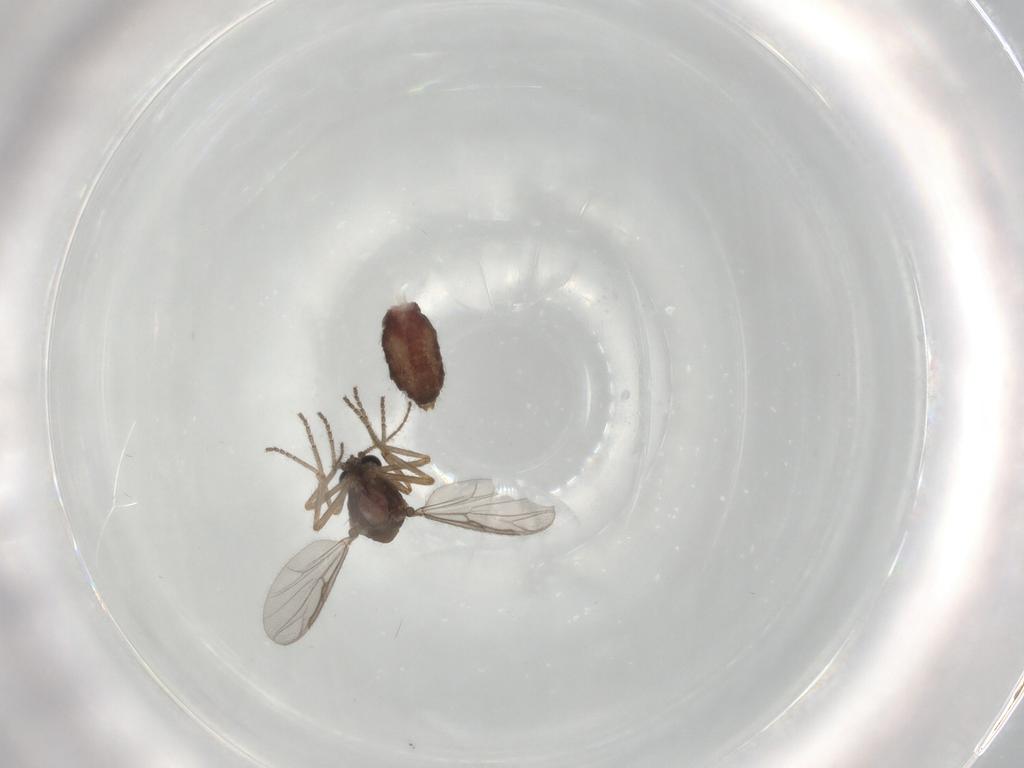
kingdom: Animalia
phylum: Arthropoda
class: Insecta
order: Diptera
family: Ceratopogonidae
